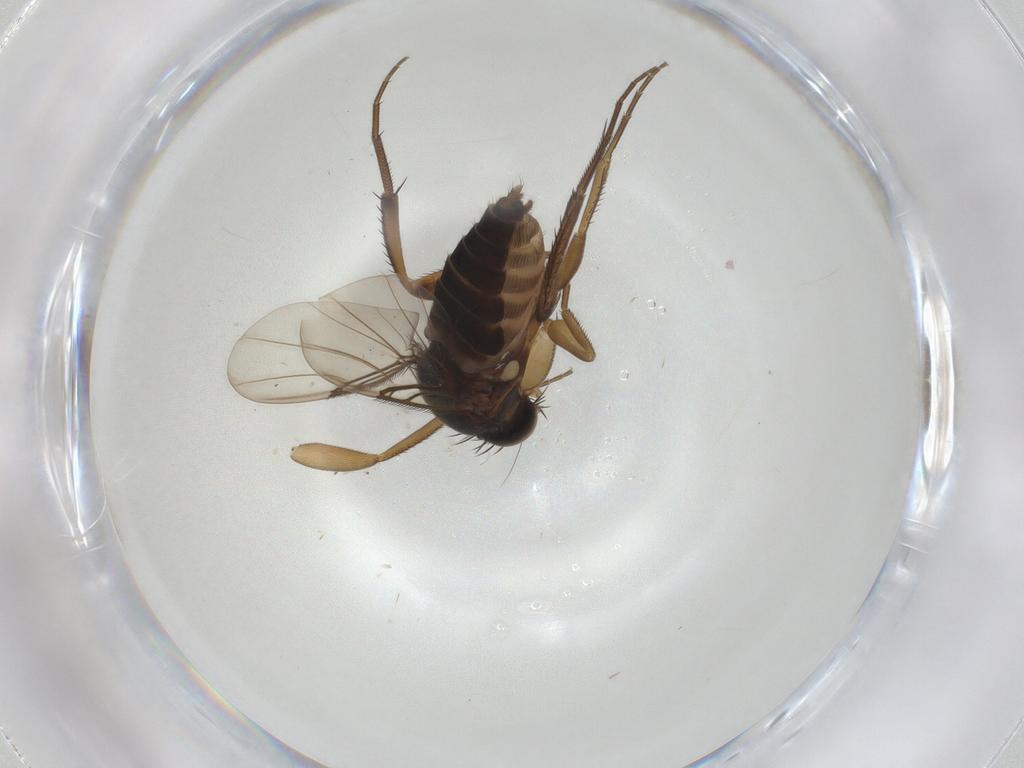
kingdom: Animalia
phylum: Arthropoda
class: Insecta
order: Diptera
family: Phoridae
